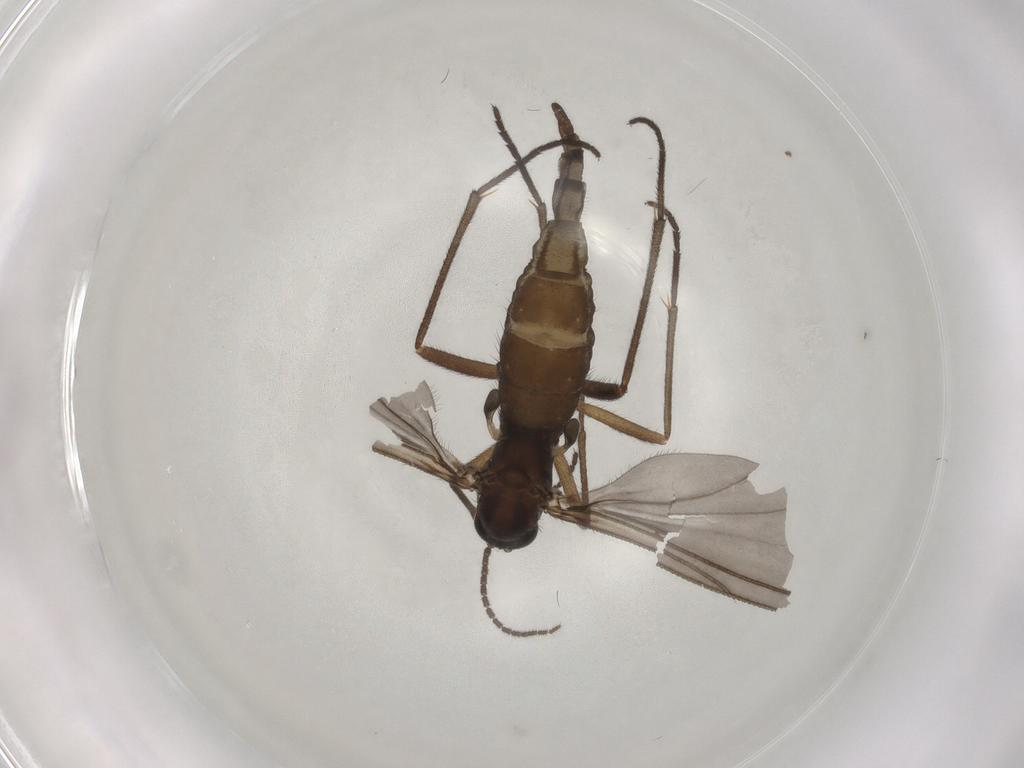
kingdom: Animalia
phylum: Arthropoda
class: Insecta
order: Diptera
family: Sciaridae
